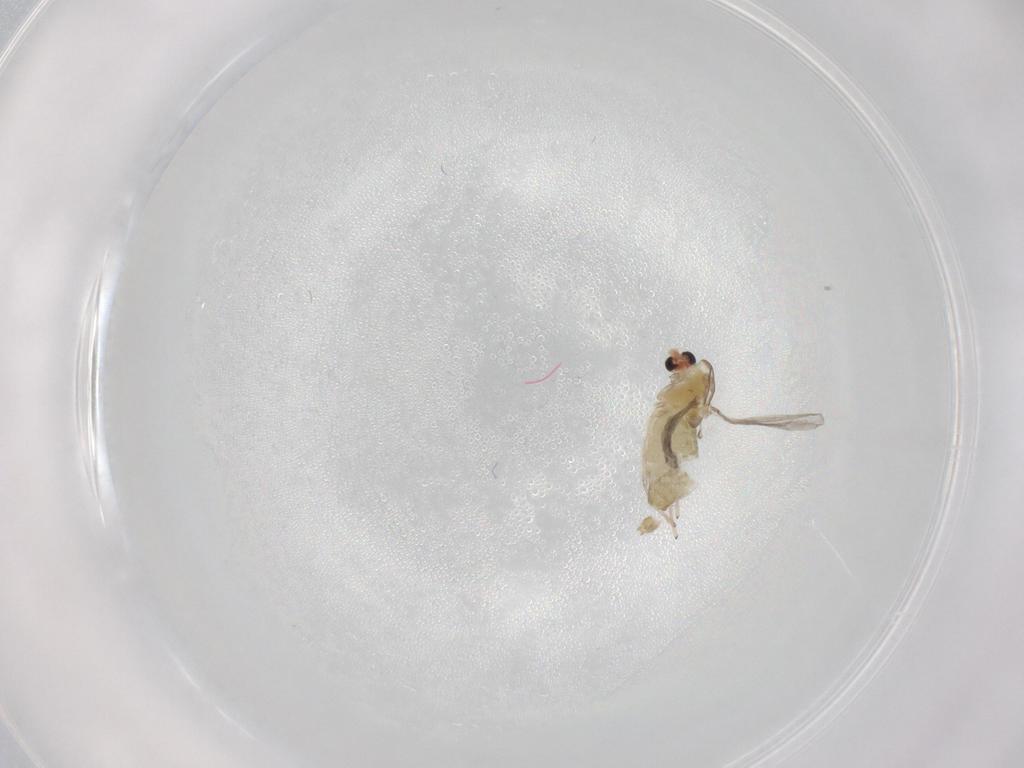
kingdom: Animalia
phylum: Arthropoda
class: Insecta
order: Diptera
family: Chironomidae
